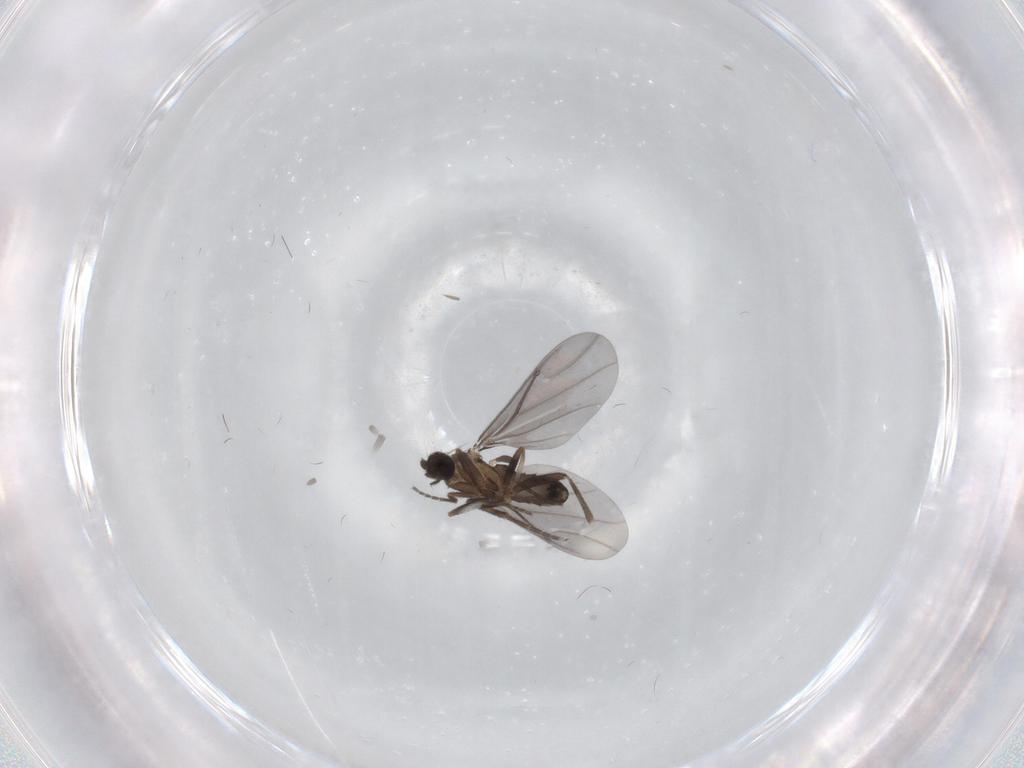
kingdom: Animalia
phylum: Arthropoda
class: Insecta
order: Diptera
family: Phoridae
